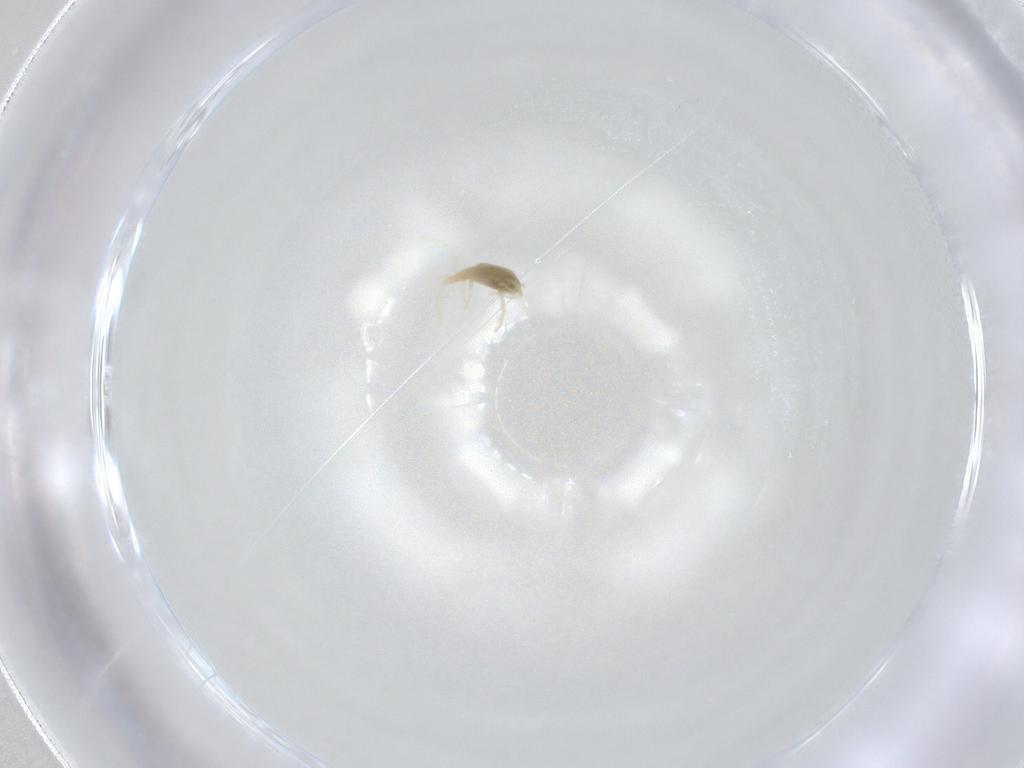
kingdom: Animalia
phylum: Arthropoda
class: Arachnida
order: Trombidiformes
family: Erythraeidae
